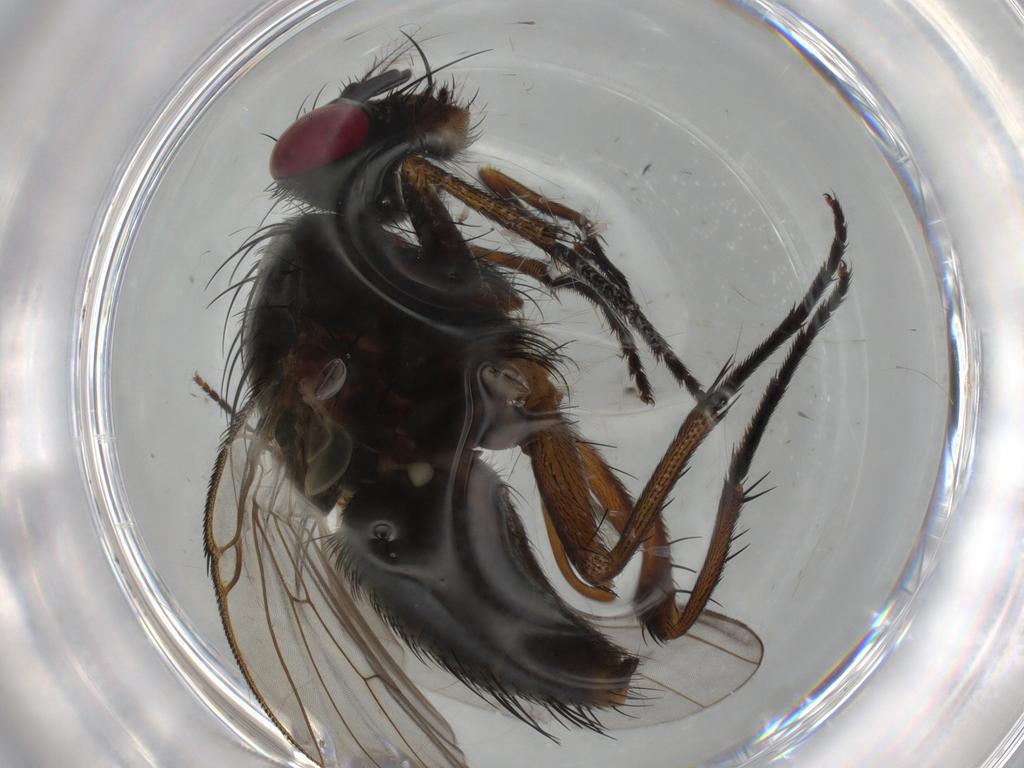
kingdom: Animalia
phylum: Arthropoda
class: Insecta
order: Diptera
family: Muscidae
